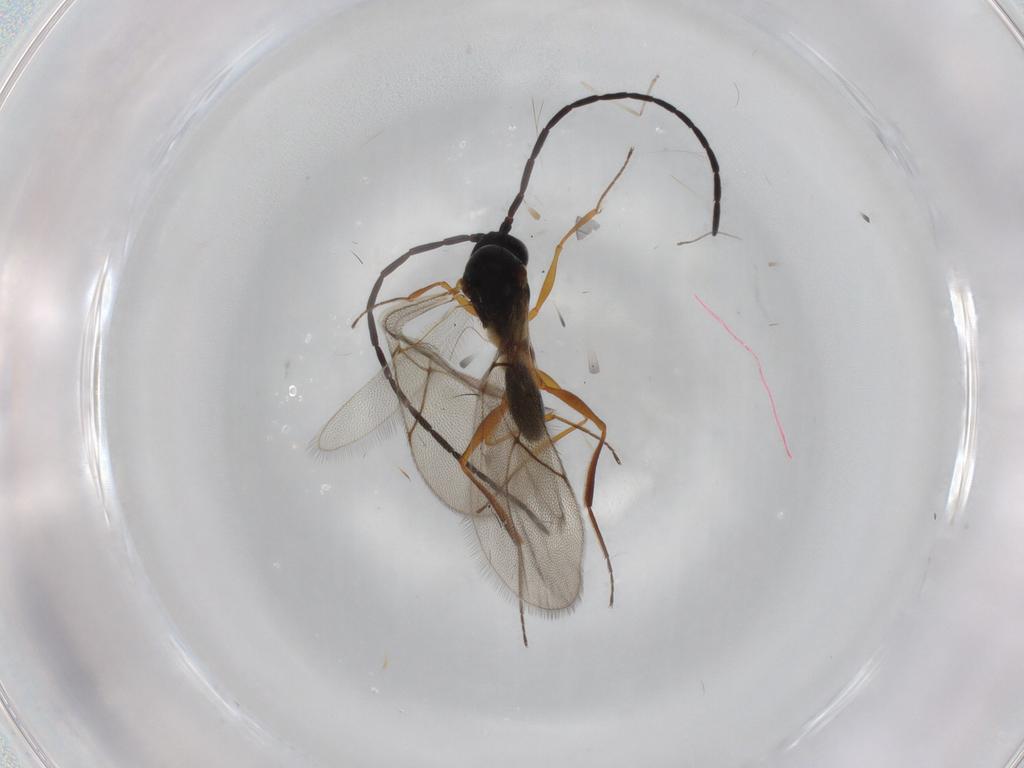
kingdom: Animalia
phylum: Arthropoda
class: Insecta
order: Hymenoptera
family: Figitidae
